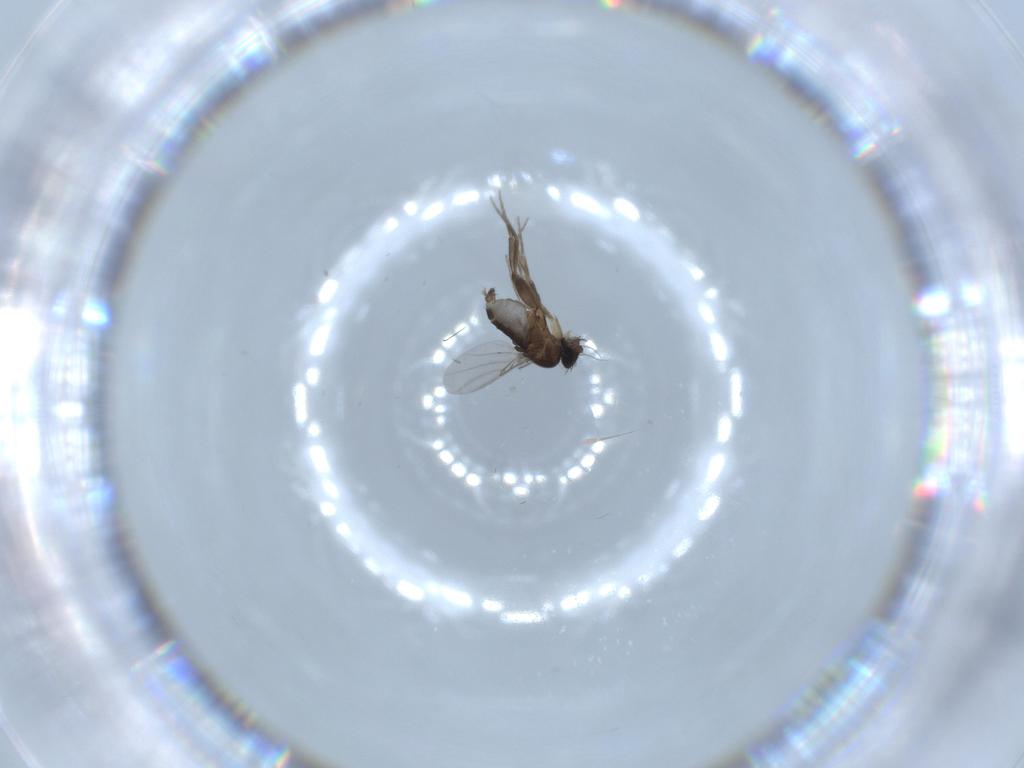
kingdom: Animalia
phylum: Arthropoda
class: Insecta
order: Diptera
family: Phoridae
